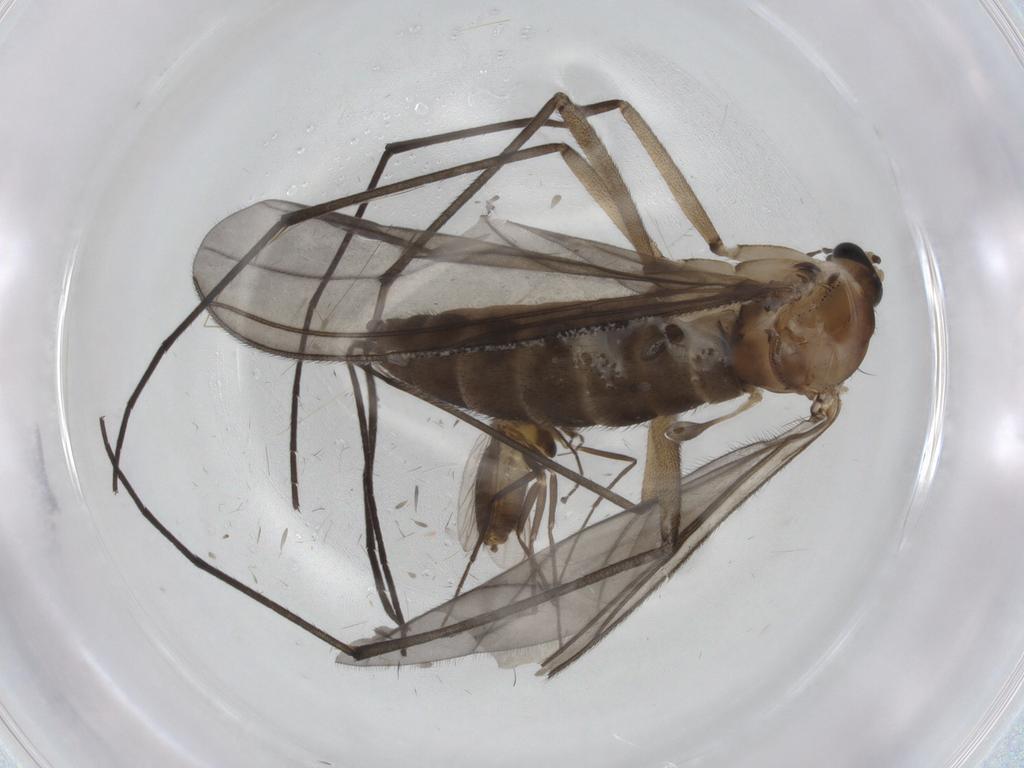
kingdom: Animalia
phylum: Arthropoda
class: Insecta
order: Diptera
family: Sciaridae
